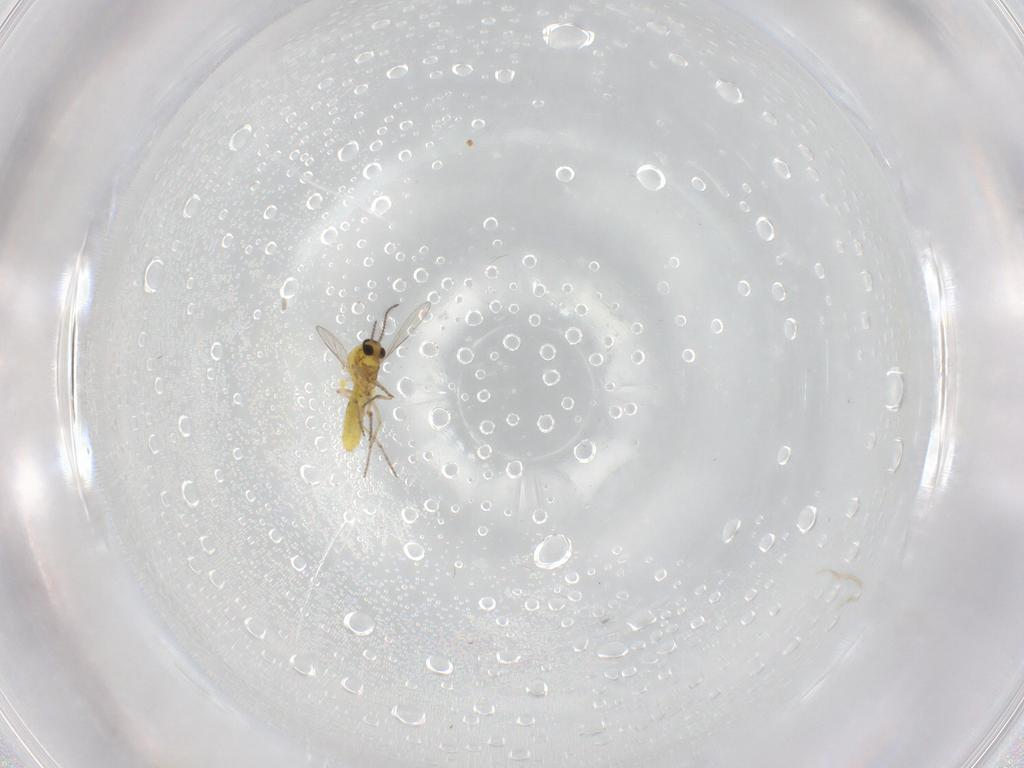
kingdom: Animalia
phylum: Arthropoda
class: Insecta
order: Diptera
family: Ceratopogonidae
